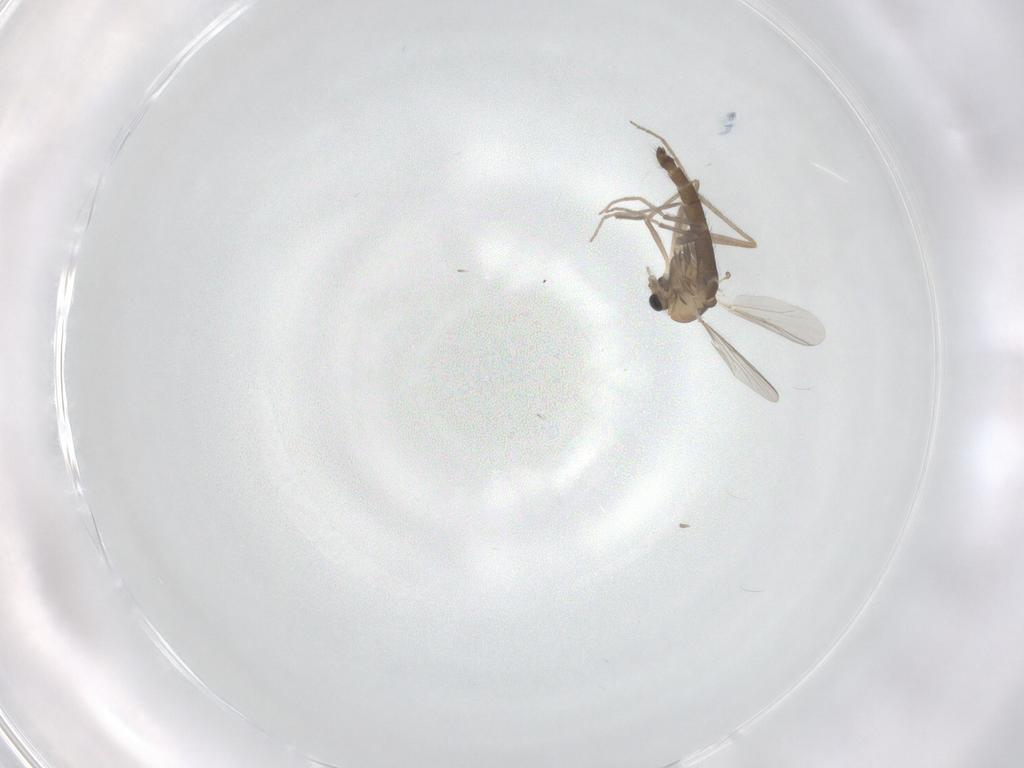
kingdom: Animalia
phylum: Arthropoda
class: Insecta
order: Diptera
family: Chironomidae
